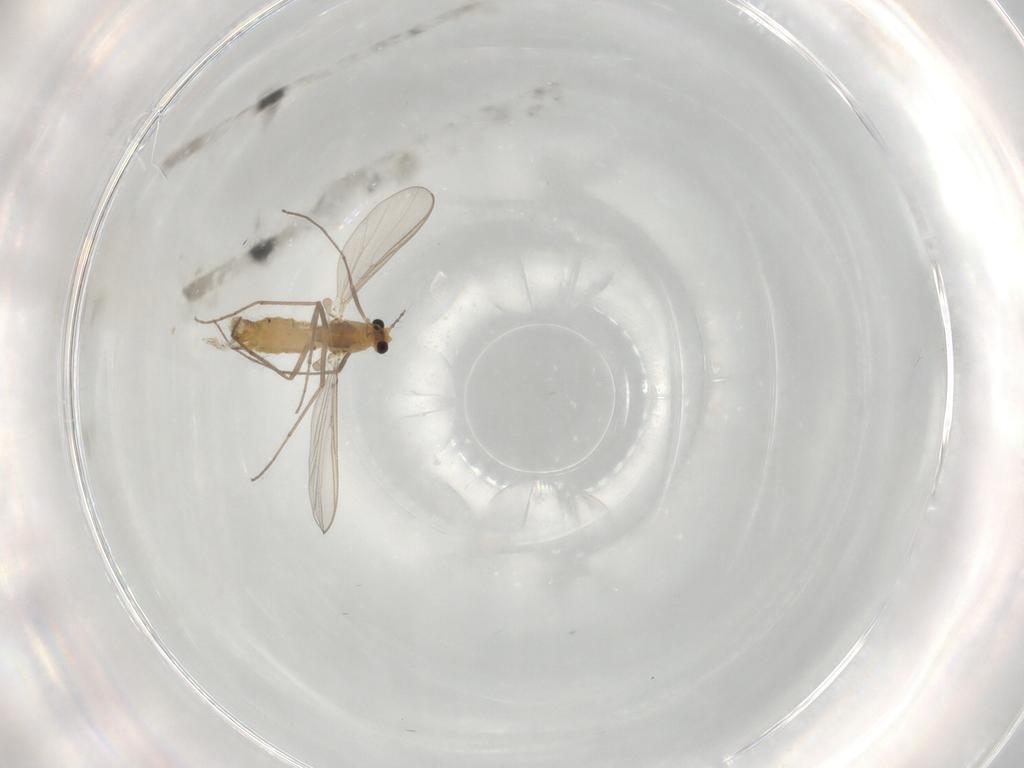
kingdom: Animalia
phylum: Arthropoda
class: Insecta
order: Diptera
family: Chironomidae
